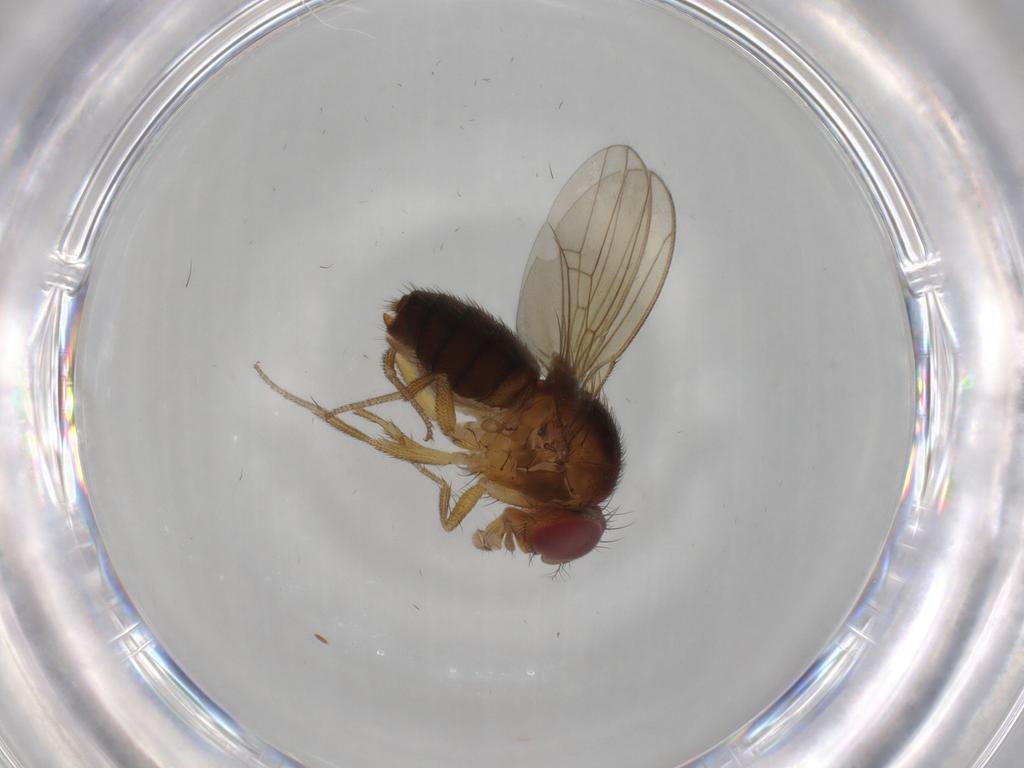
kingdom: Animalia
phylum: Arthropoda
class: Insecta
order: Diptera
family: Drosophilidae
